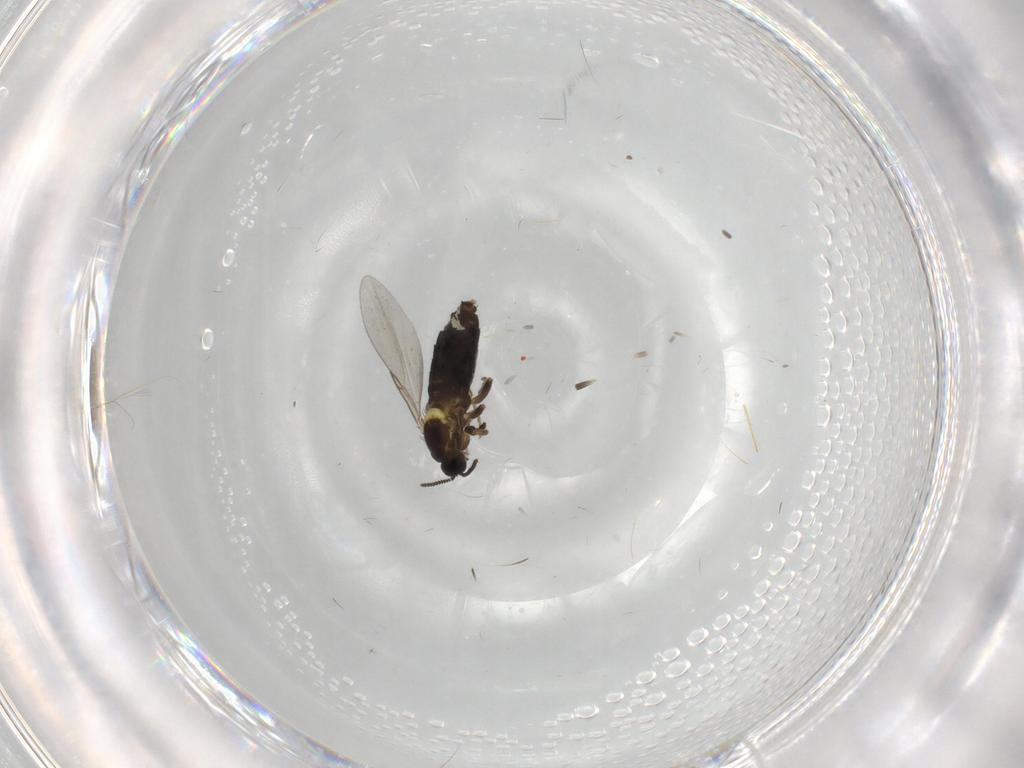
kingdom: Animalia
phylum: Arthropoda
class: Insecta
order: Diptera
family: Scatopsidae
